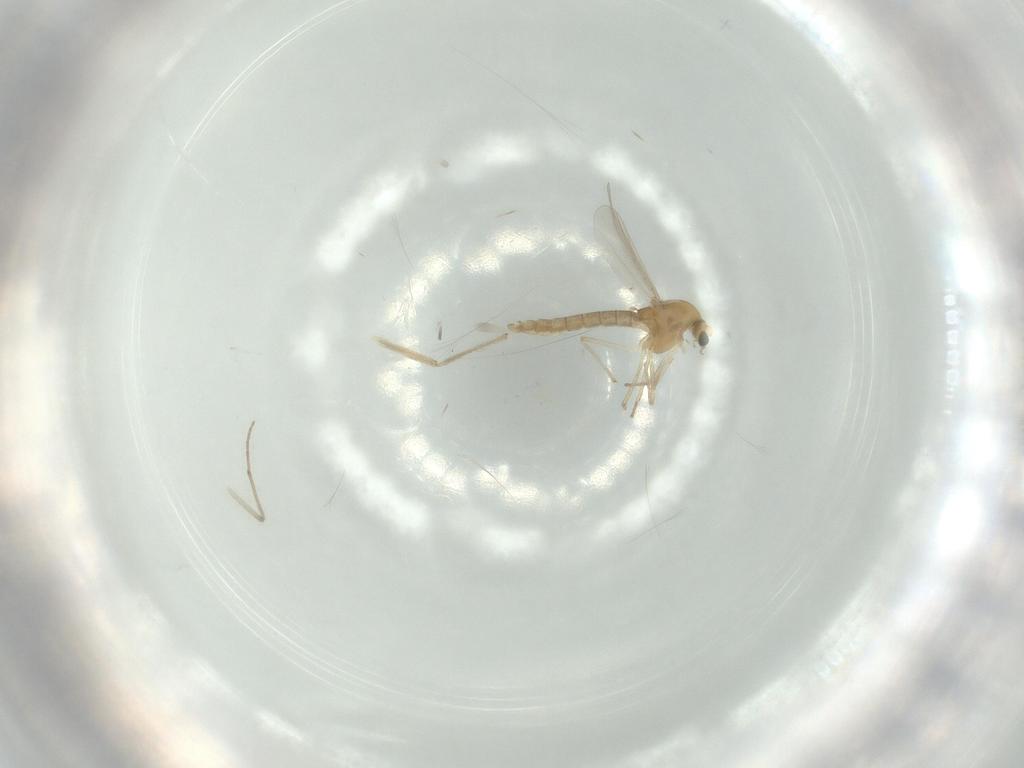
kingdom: Animalia
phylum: Arthropoda
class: Insecta
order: Diptera
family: Chironomidae
